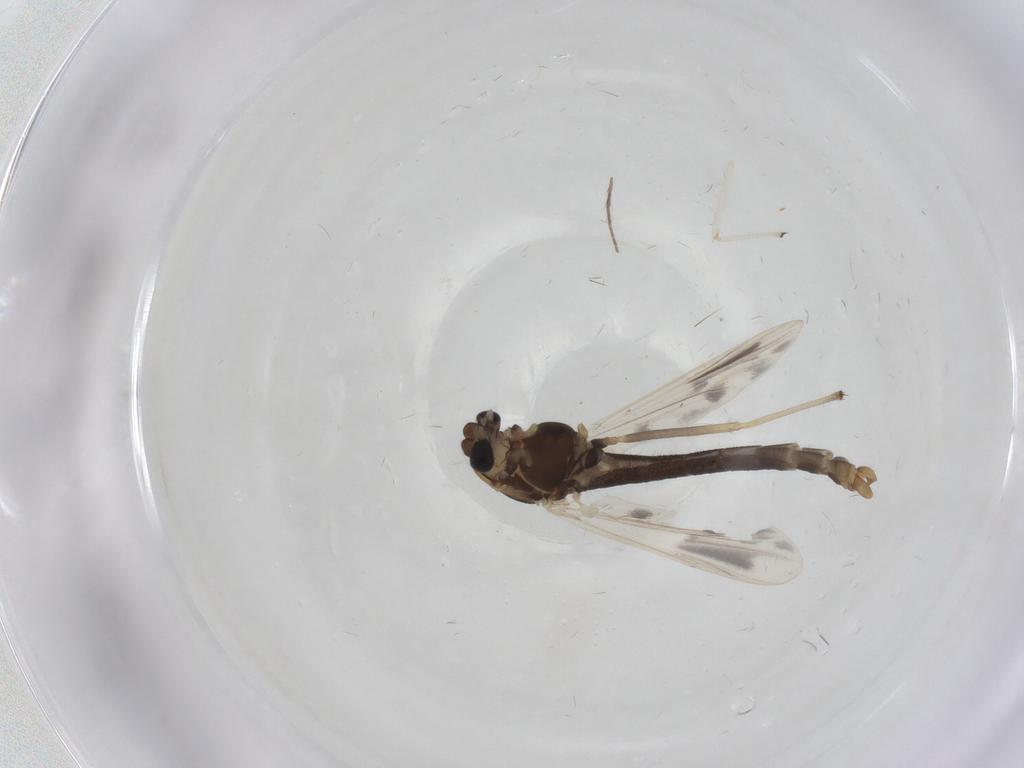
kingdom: Animalia
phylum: Arthropoda
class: Insecta
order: Diptera
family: Chironomidae
